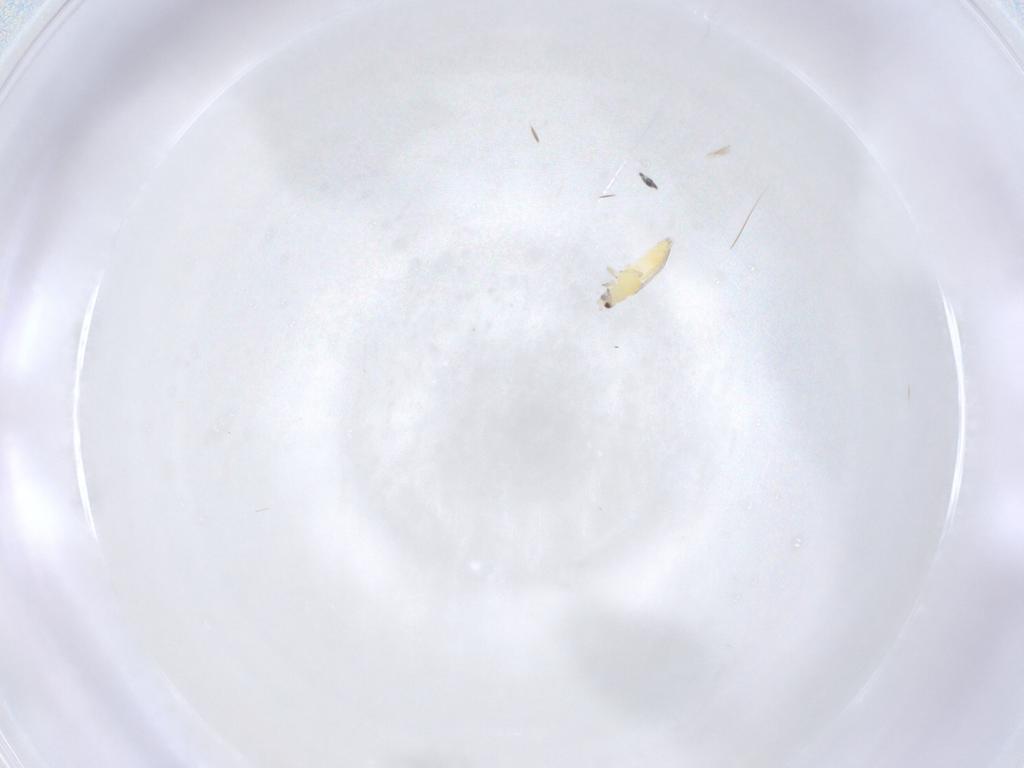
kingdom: Animalia
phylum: Arthropoda
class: Insecta
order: Thysanoptera
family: Thripidae
